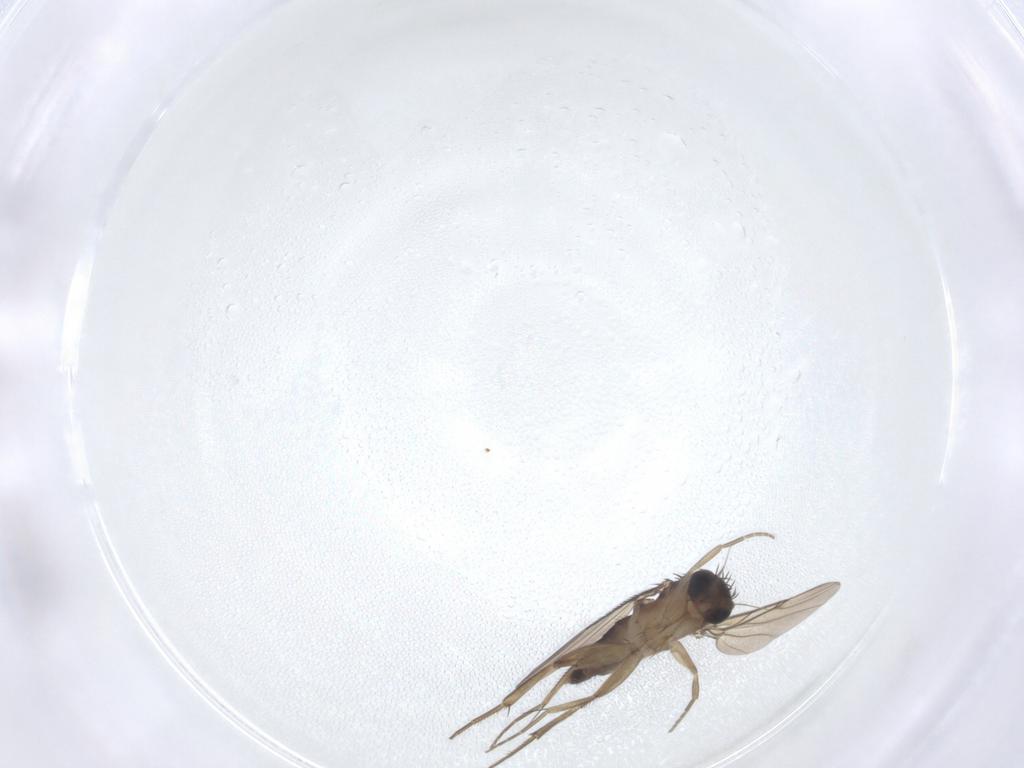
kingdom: Animalia
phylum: Arthropoda
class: Insecta
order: Diptera
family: Phoridae
